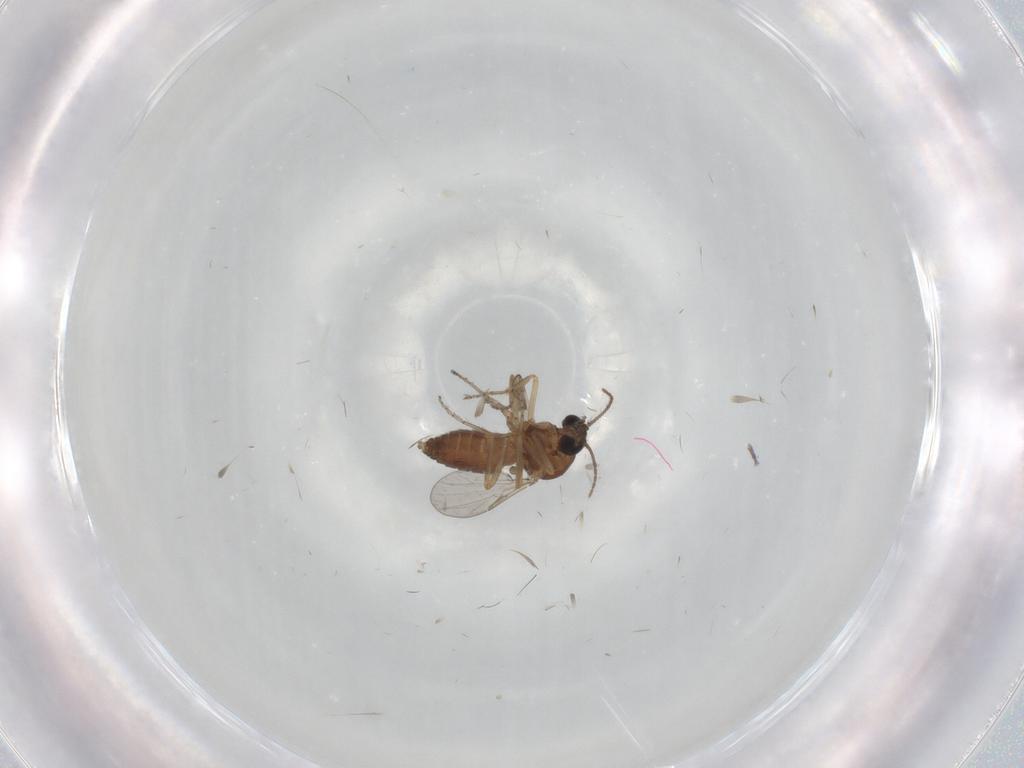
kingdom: Animalia
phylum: Arthropoda
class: Insecta
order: Diptera
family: Ceratopogonidae
